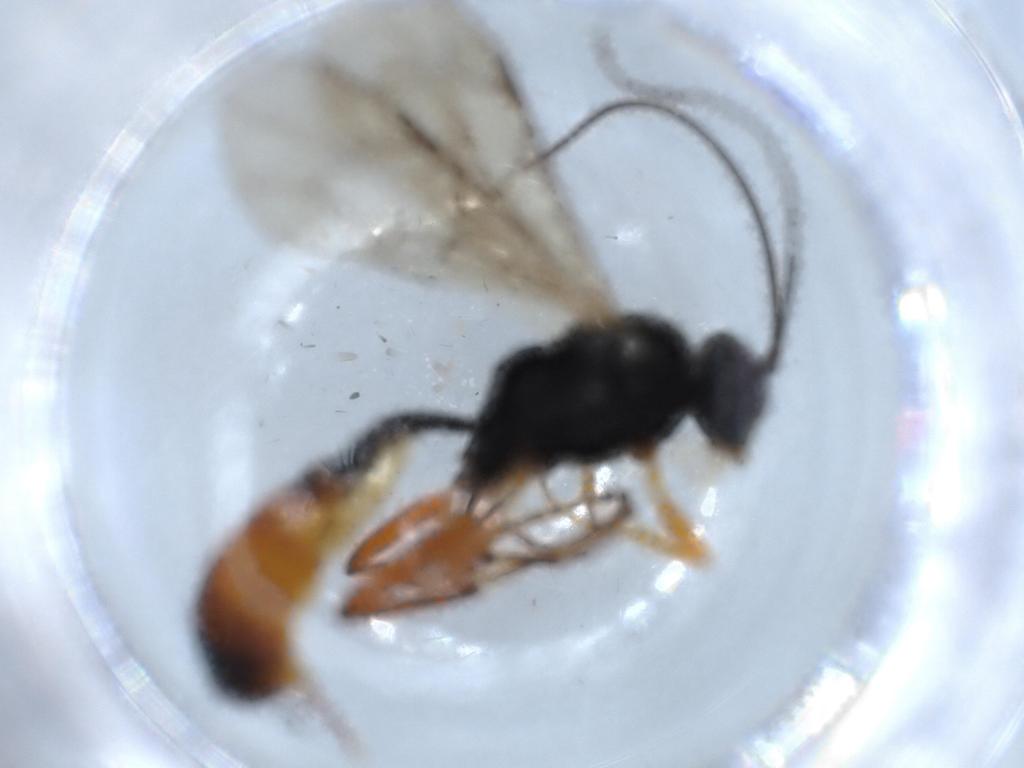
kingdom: Animalia
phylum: Arthropoda
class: Insecta
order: Hymenoptera
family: Ichneumonidae
